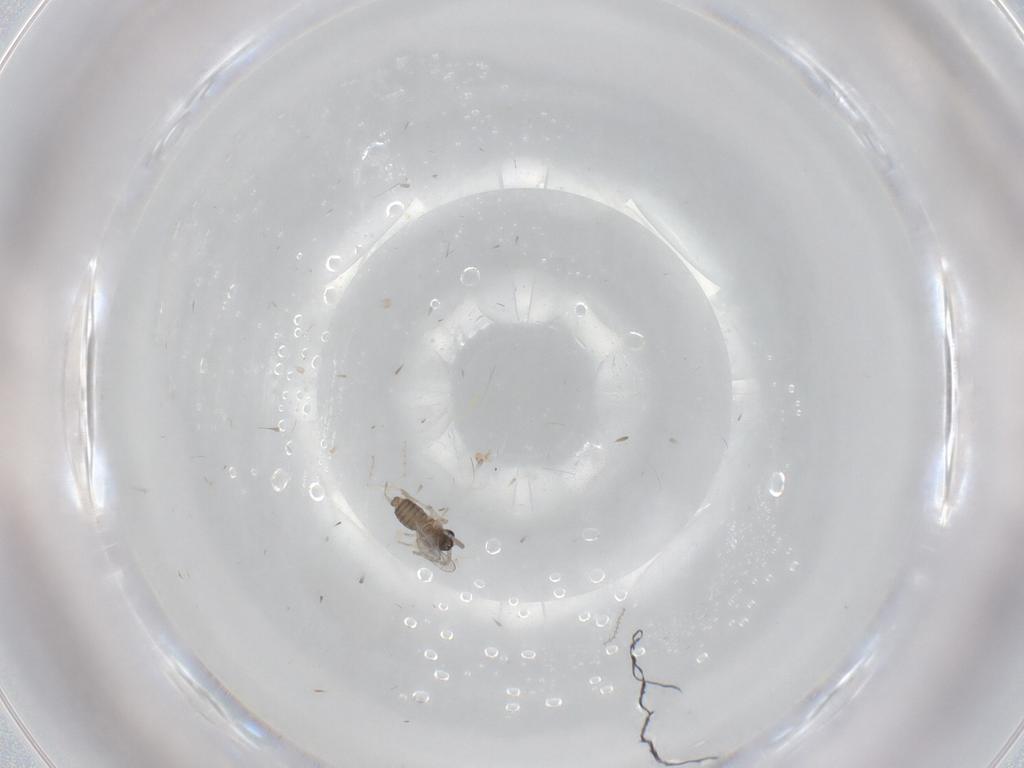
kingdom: Animalia
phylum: Arthropoda
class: Insecta
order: Diptera
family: Cecidomyiidae
